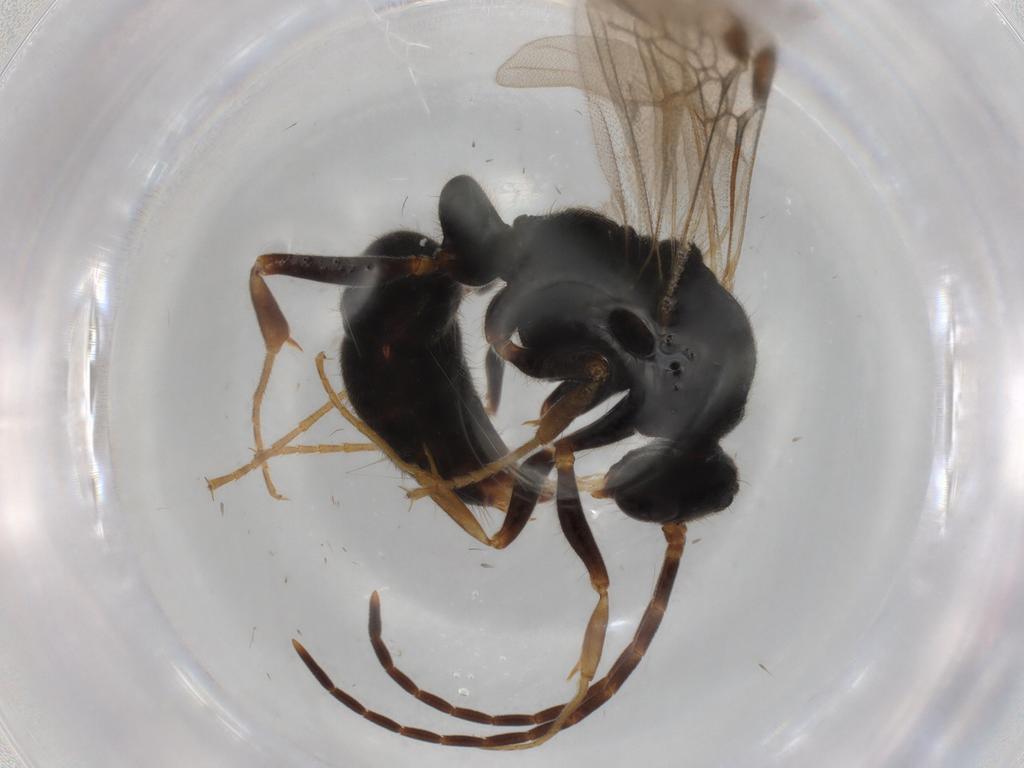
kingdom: Animalia
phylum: Arthropoda
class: Insecta
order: Hymenoptera
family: Formicidae
